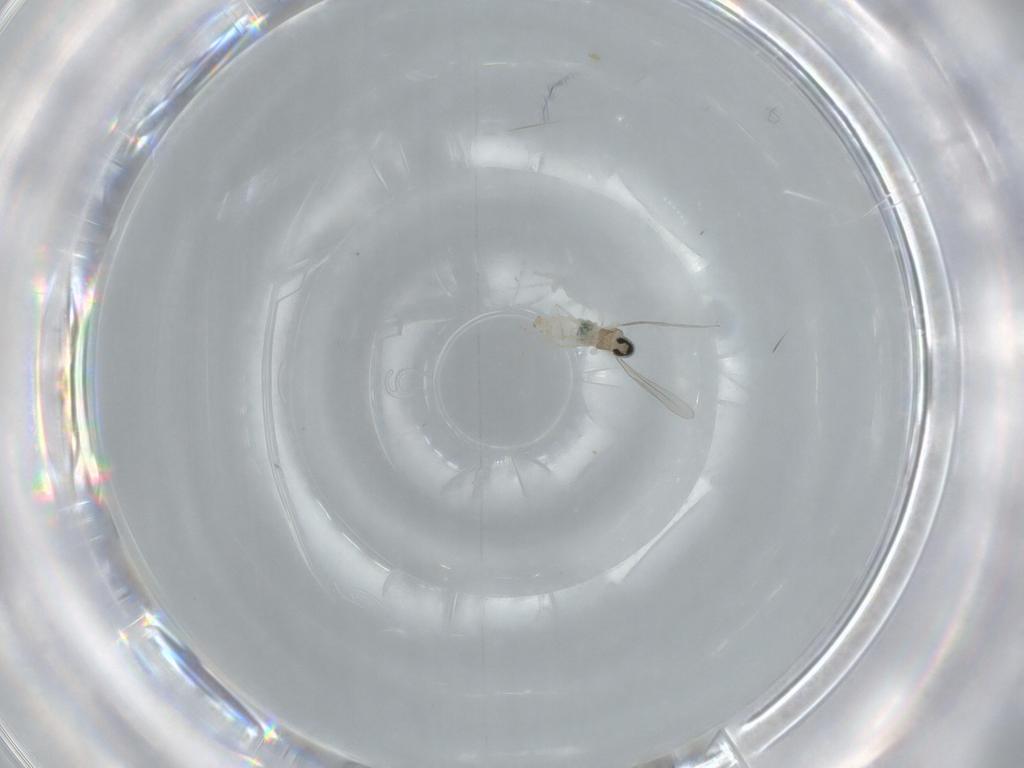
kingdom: Animalia
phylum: Arthropoda
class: Insecta
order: Diptera
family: Cecidomyiidae
